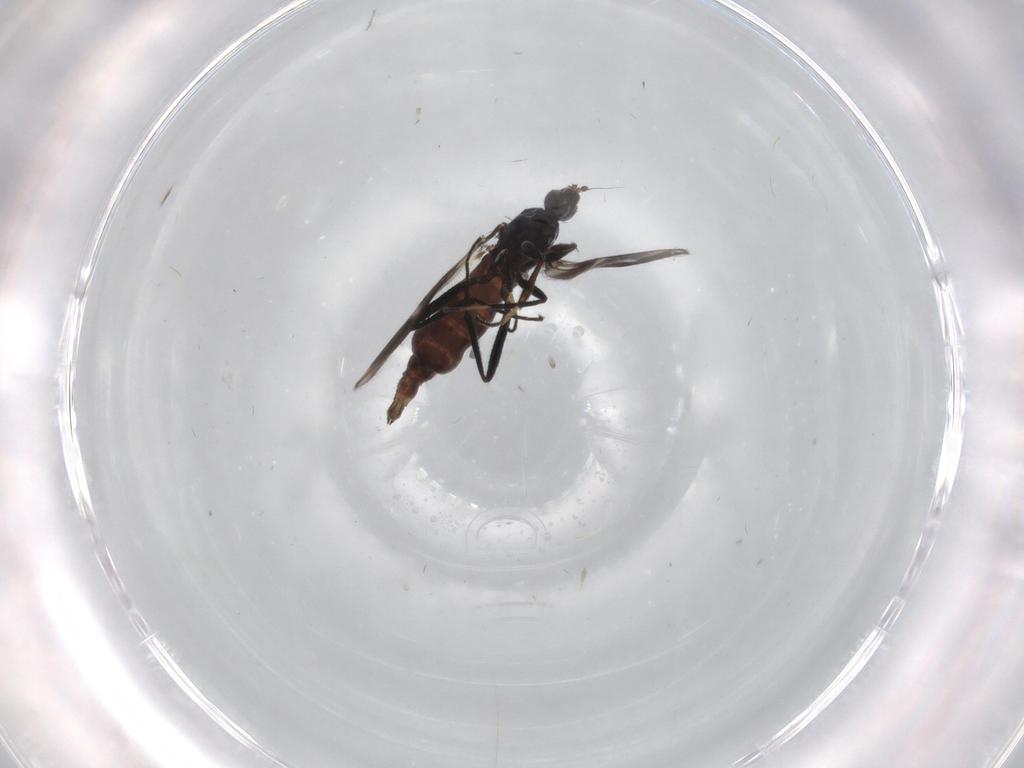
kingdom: Animalia
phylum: Arthropoda
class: Insecta
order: Diptera
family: Hybotidae
